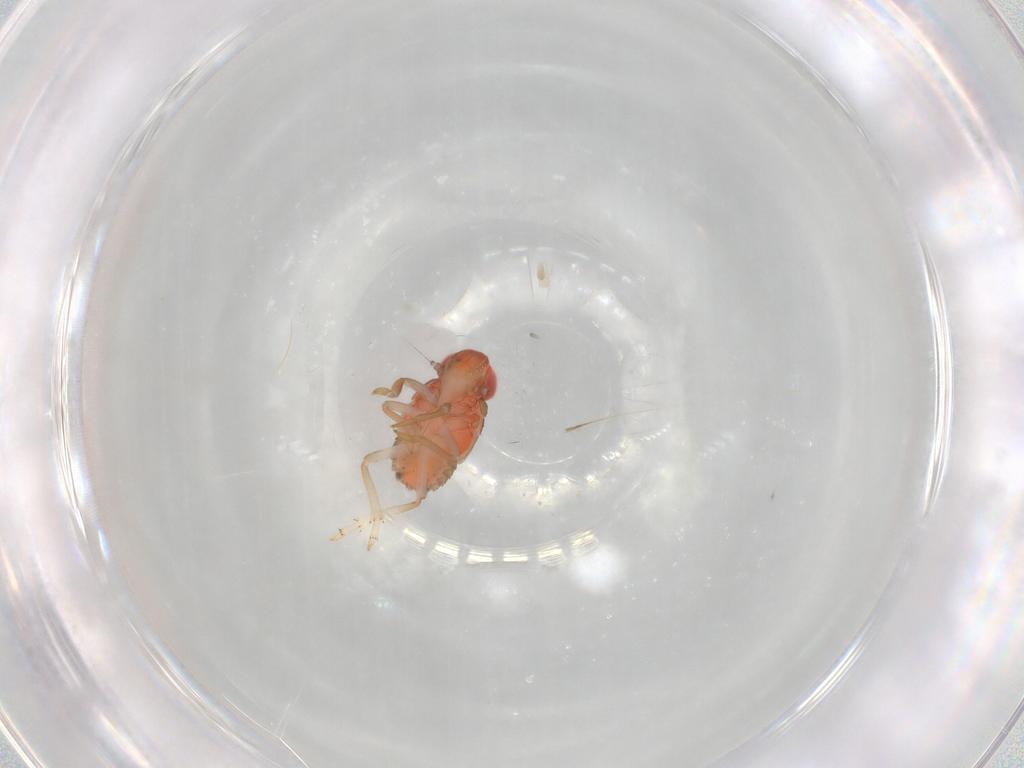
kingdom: Animalia
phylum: Arthropoda
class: Insecta
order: Hemiptera
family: Issidae
